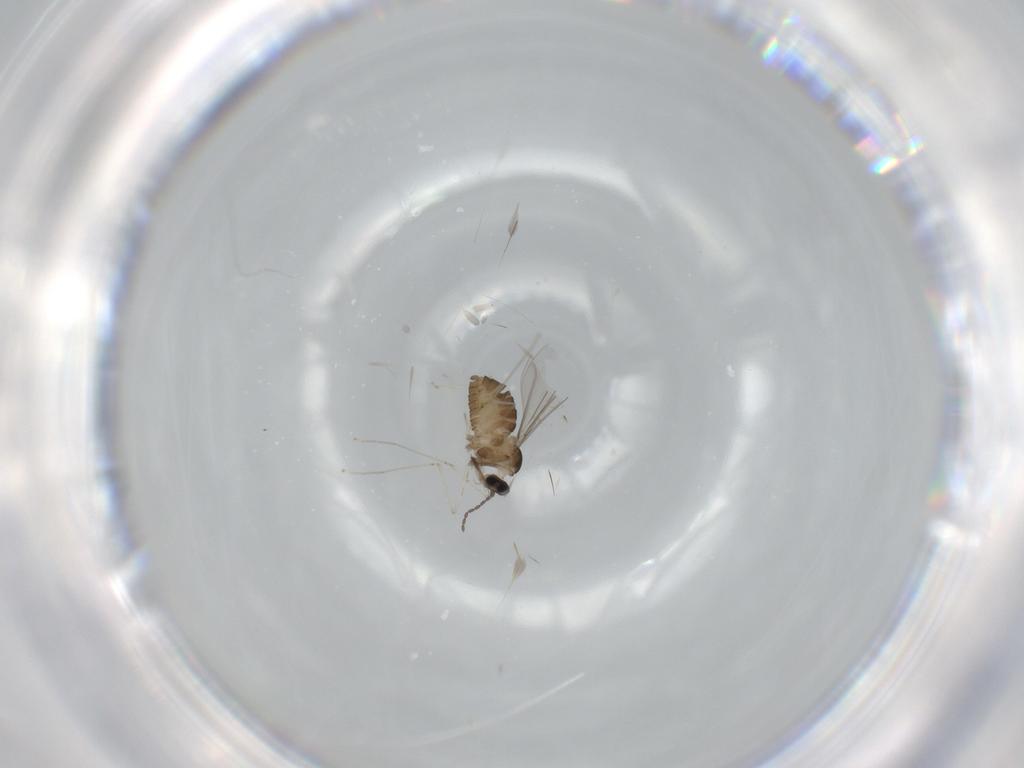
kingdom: Animalia
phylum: Arthropoda
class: Insecta
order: Diptera
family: Cecidomyiidae
